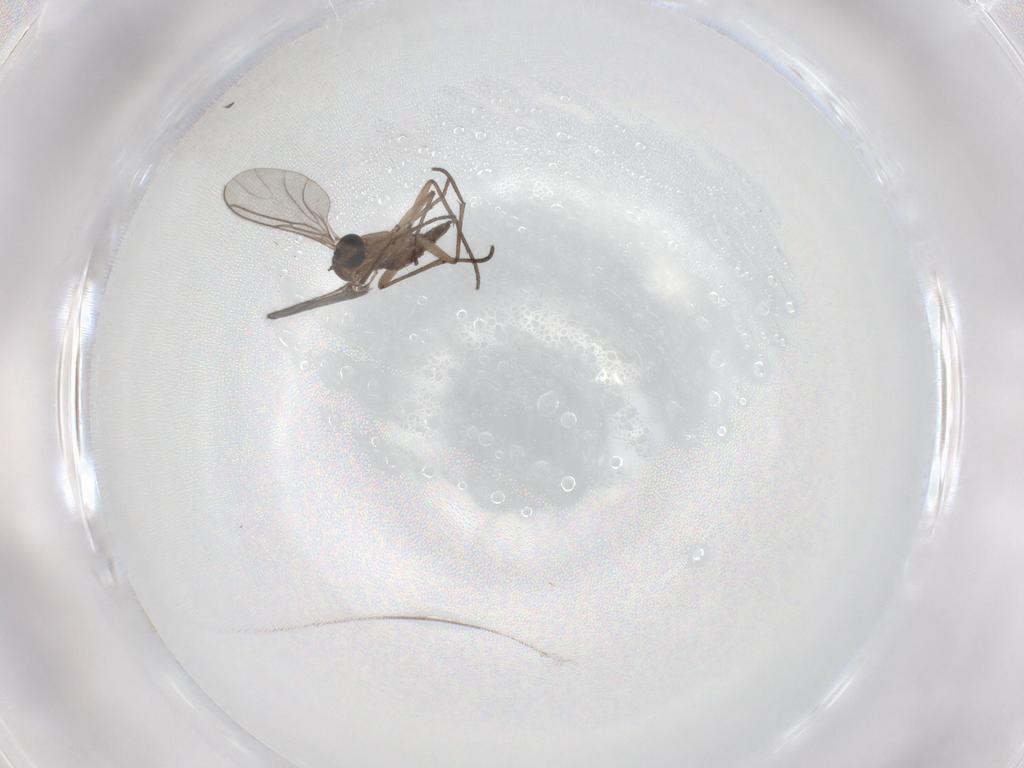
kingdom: Animalia
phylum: Arthropoda
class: Insecta
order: Diptera
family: Sciaridae
